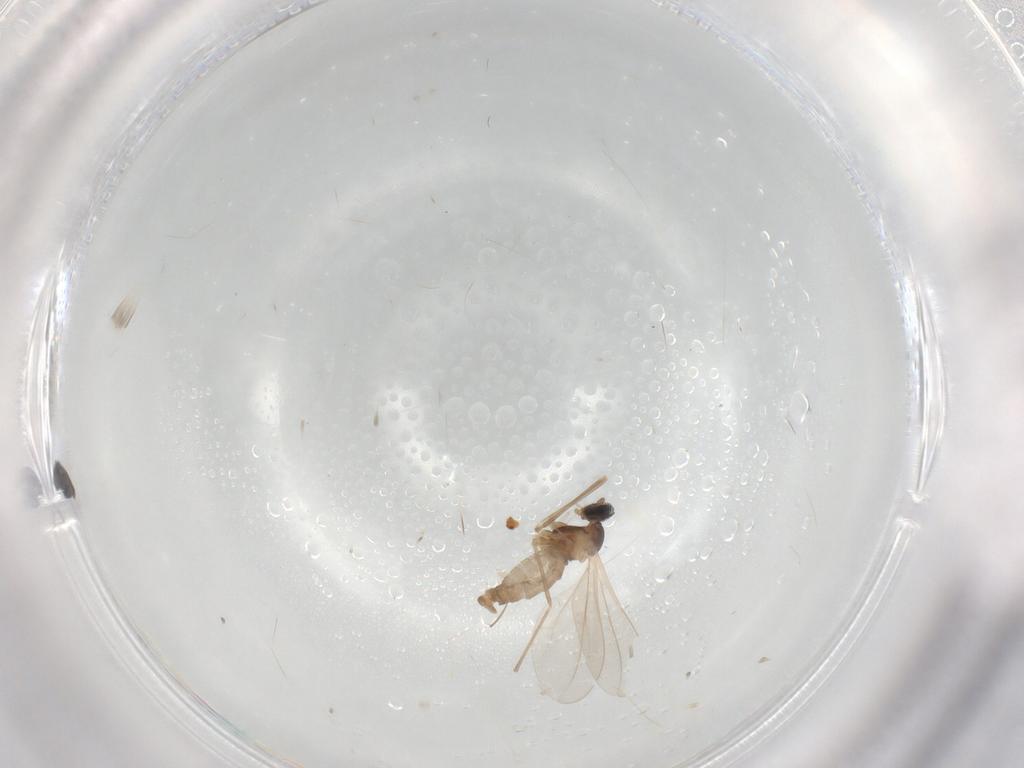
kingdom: Animalia
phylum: Arthropoda
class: Insecta
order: Diptera
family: Cecidomyiidae
